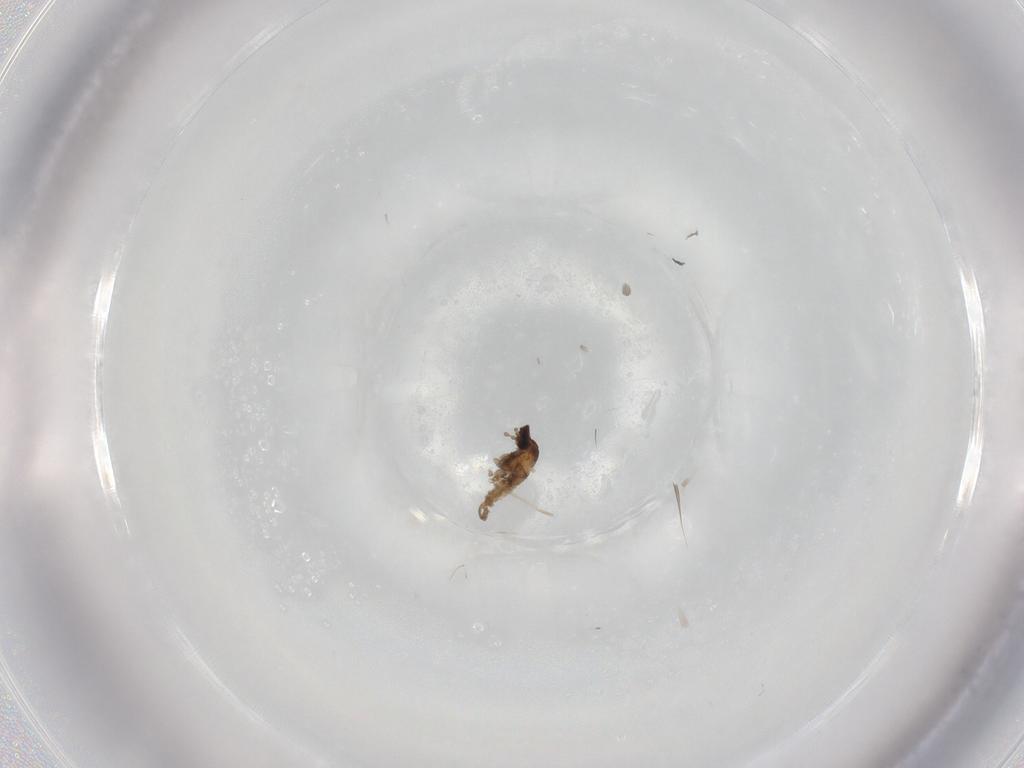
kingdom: Animalia
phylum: Arthropoda
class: Insecta
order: Diptera
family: Cecidomyiidae
